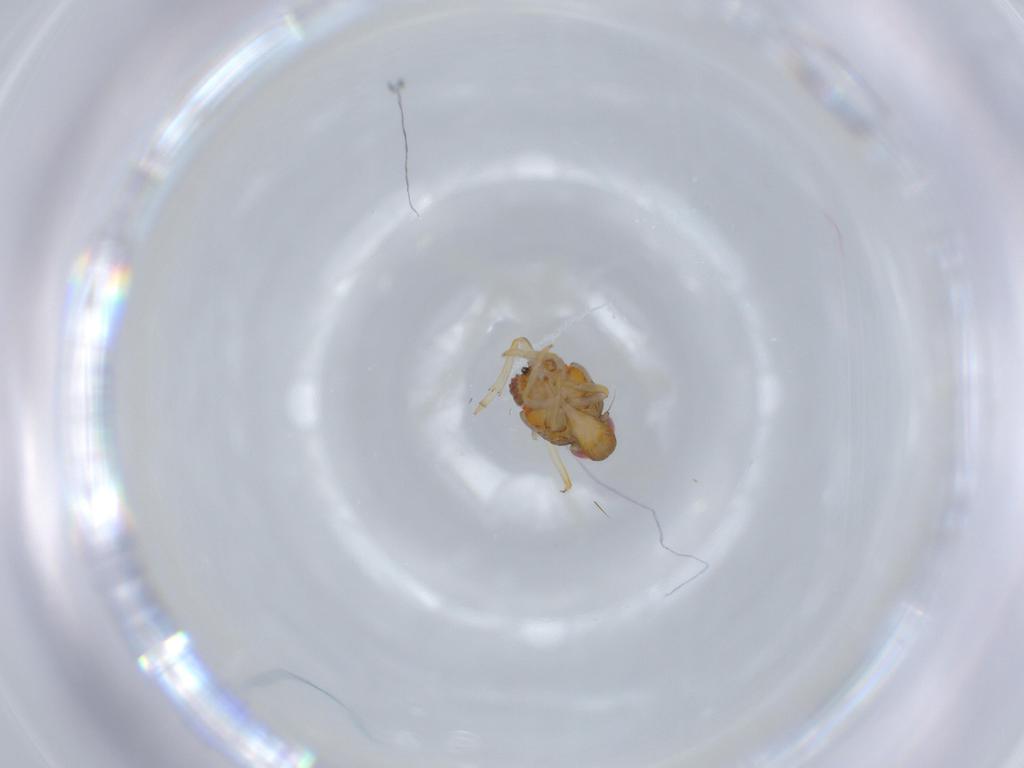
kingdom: Animalia
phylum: Arthropoda
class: Insecta
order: Hemiptera
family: Issidae
